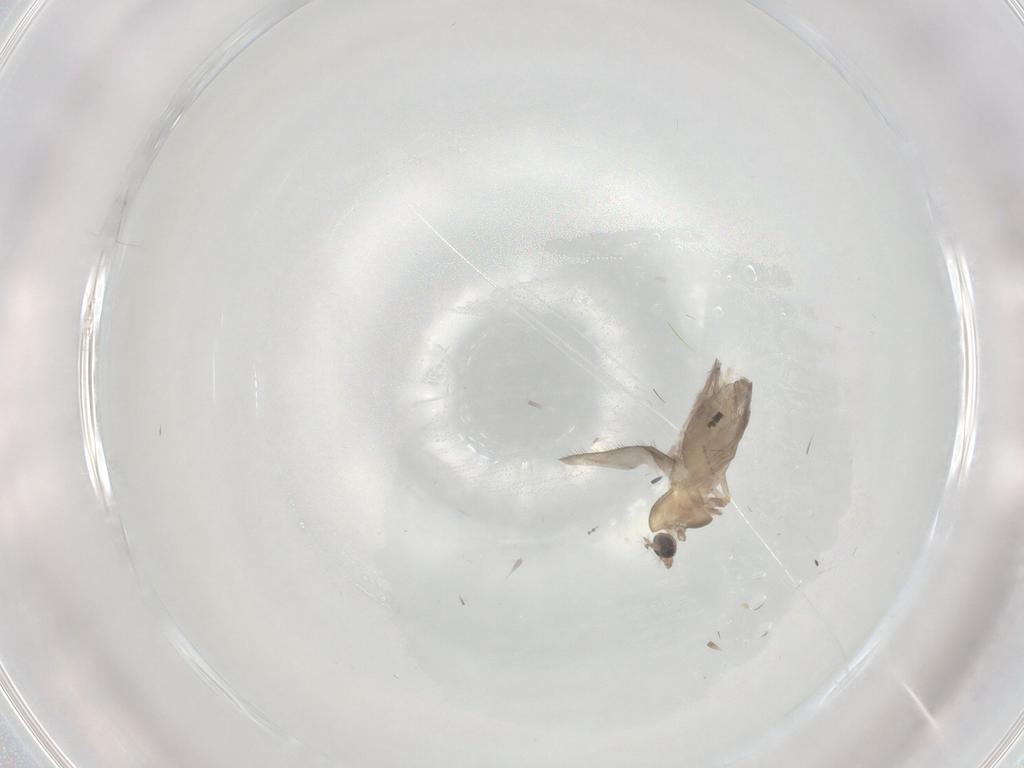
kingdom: Animalia
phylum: Arthropoda
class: Insecta
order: Diptera
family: Chironomidae
